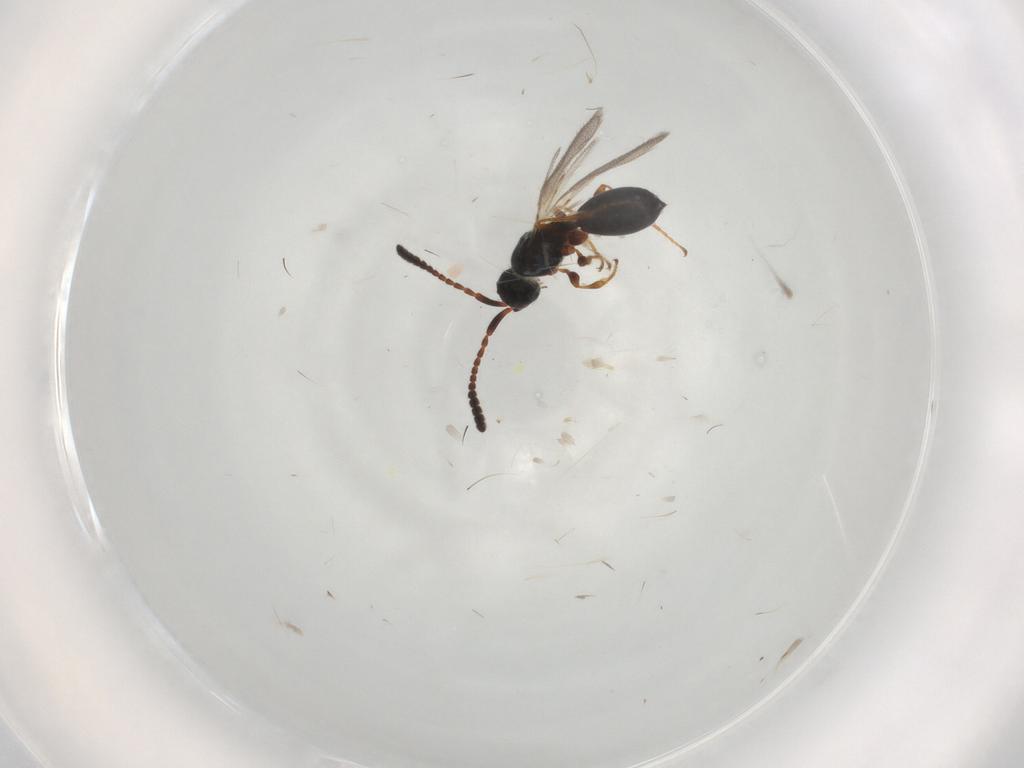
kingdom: Animalia
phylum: Arthropoda
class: Insecta
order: Hymenoptera
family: Diapriidae
